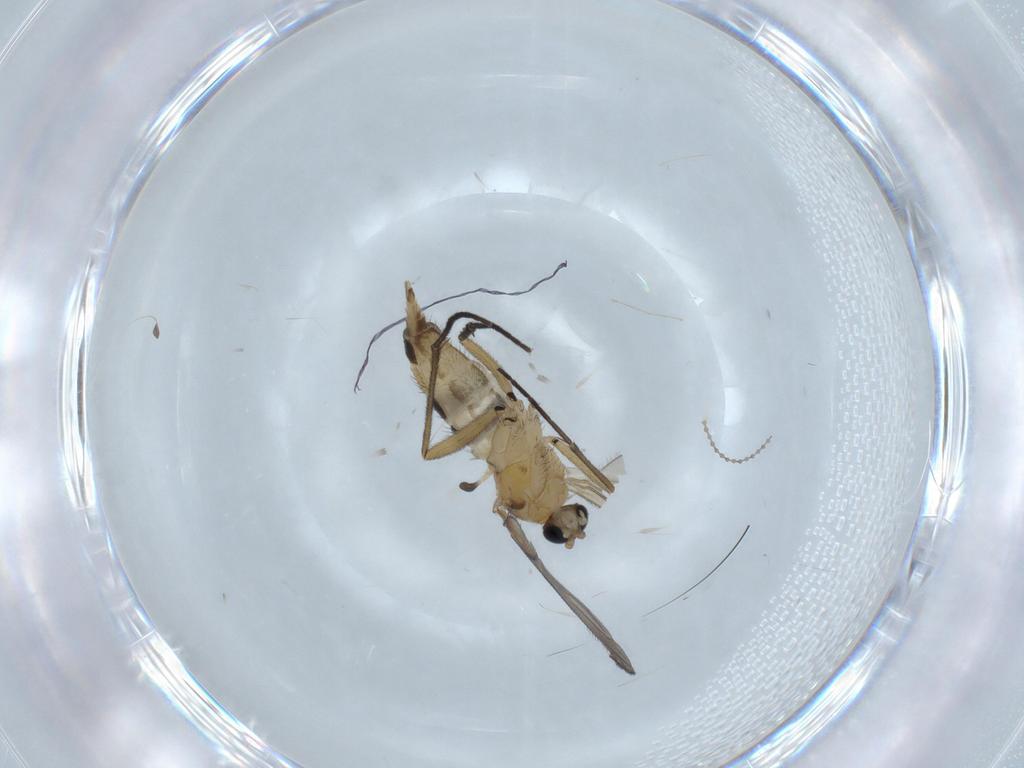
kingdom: Animalia
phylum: Arthropoda
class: Insecta
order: Diptera
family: Cecidomyiidae
